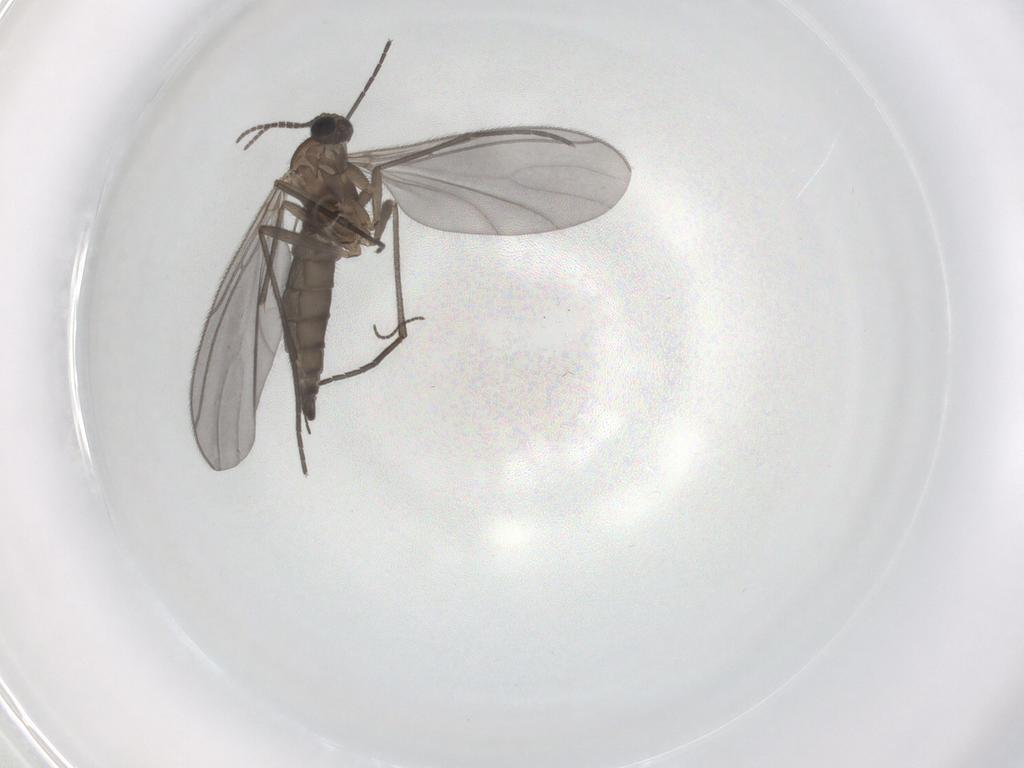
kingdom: Animalia
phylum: Arthropoda
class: Insecta
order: Diptera
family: Sciaridae
